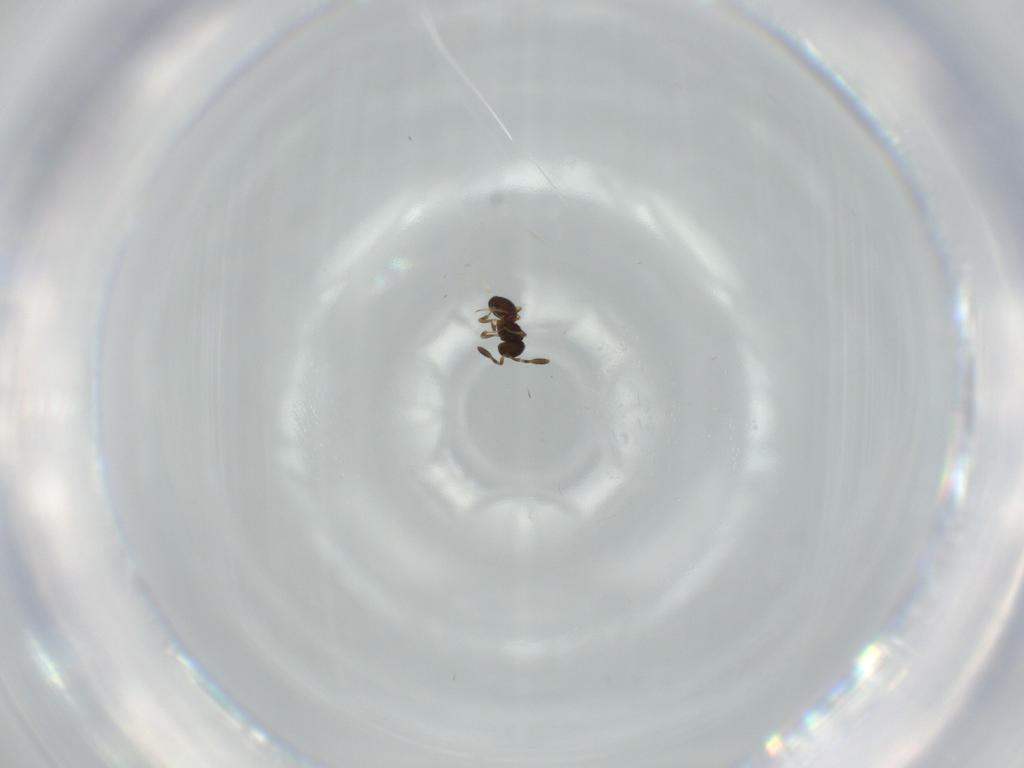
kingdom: Animalia
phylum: Arthropoda
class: Insecta
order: Hymenoptera
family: Scelionidae
